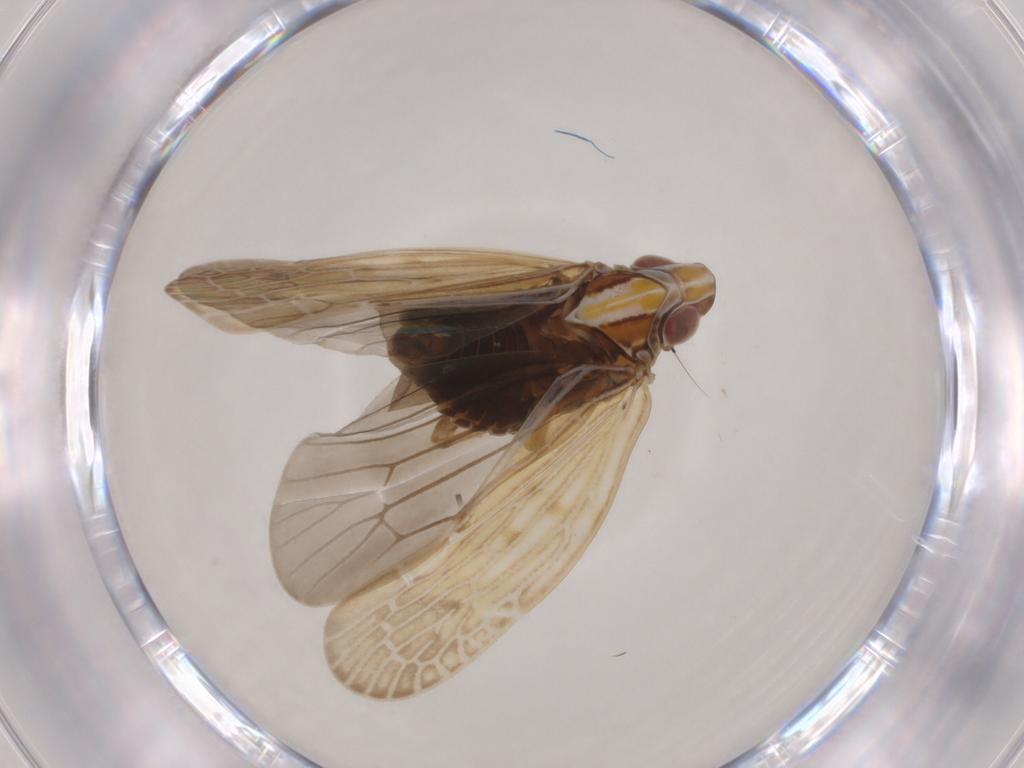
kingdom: Animalia
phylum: Arthropoda
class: Insecta
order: Hemiptera
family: Achilidae
